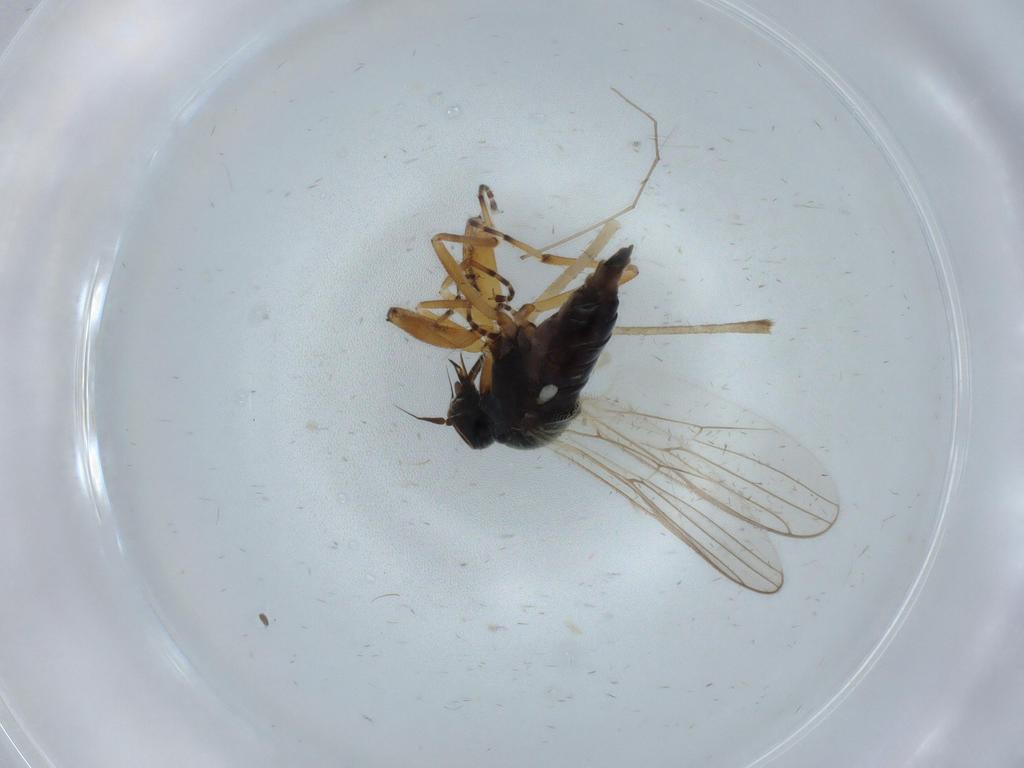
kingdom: Animalia
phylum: Arthropoda
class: Insecta
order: Diptera
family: Hybotidae
